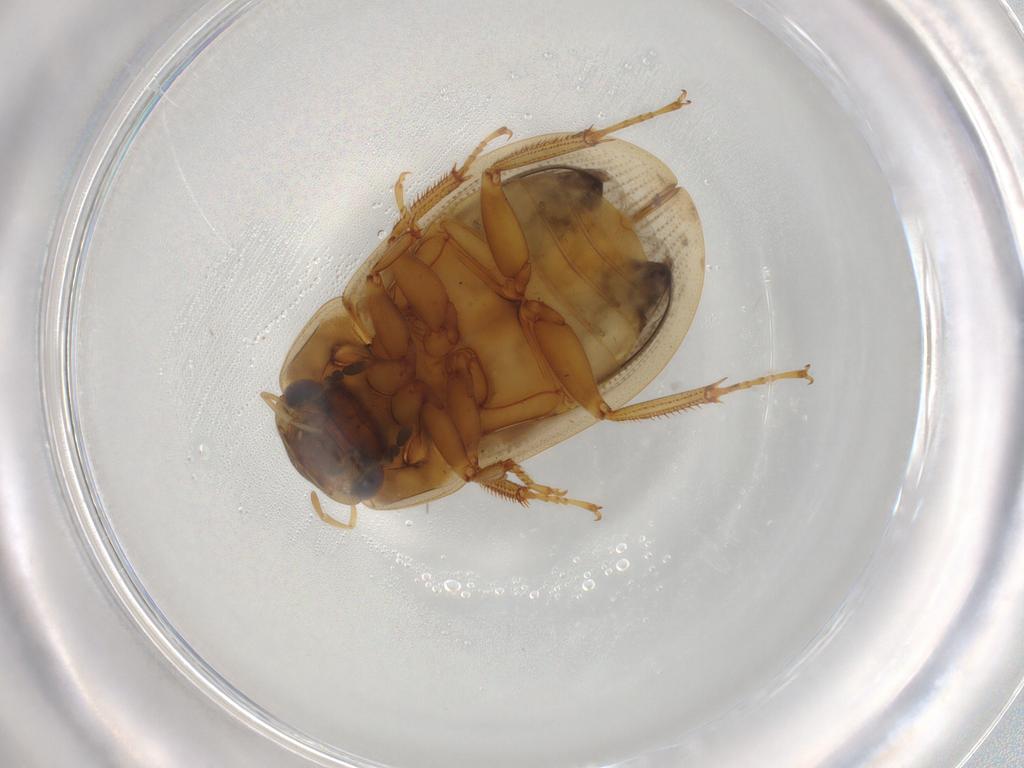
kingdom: Animalia
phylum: Arthropoda
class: Insecta
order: Coleoptera
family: Hydrophilidae
